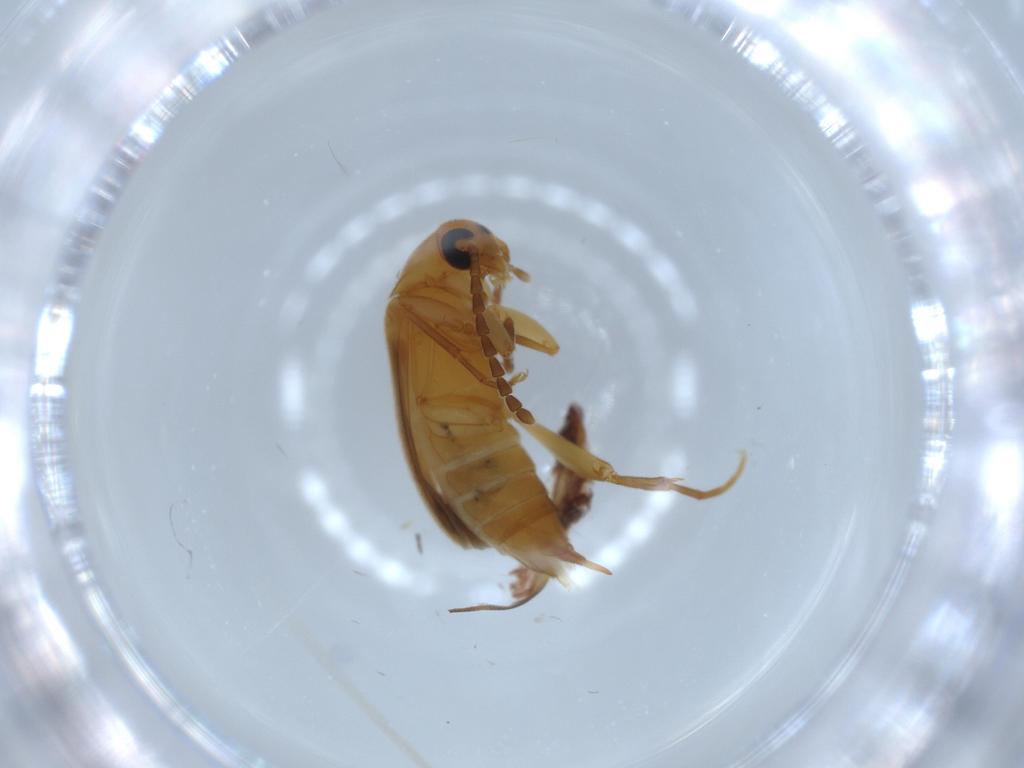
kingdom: Animalia
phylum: Arthropoda
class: Insecta
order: Coleoptera
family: Scraptiidae
